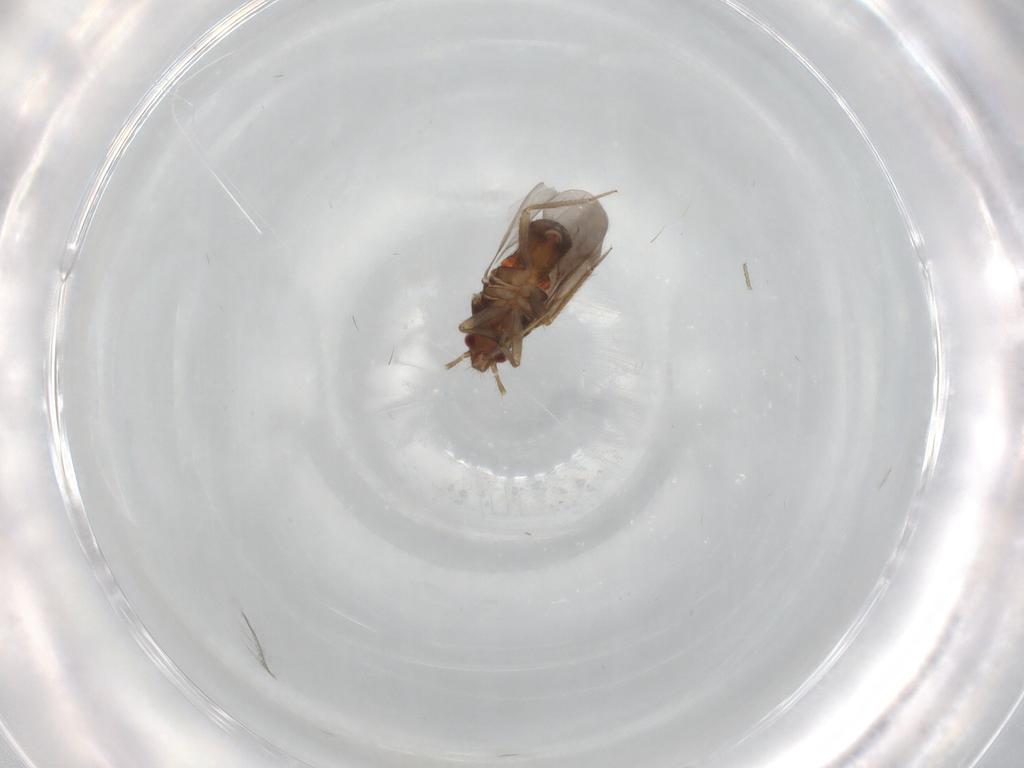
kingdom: Animalia
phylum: Arthropoda
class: Insecta
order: Hemiptera
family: Ceratocombidae
